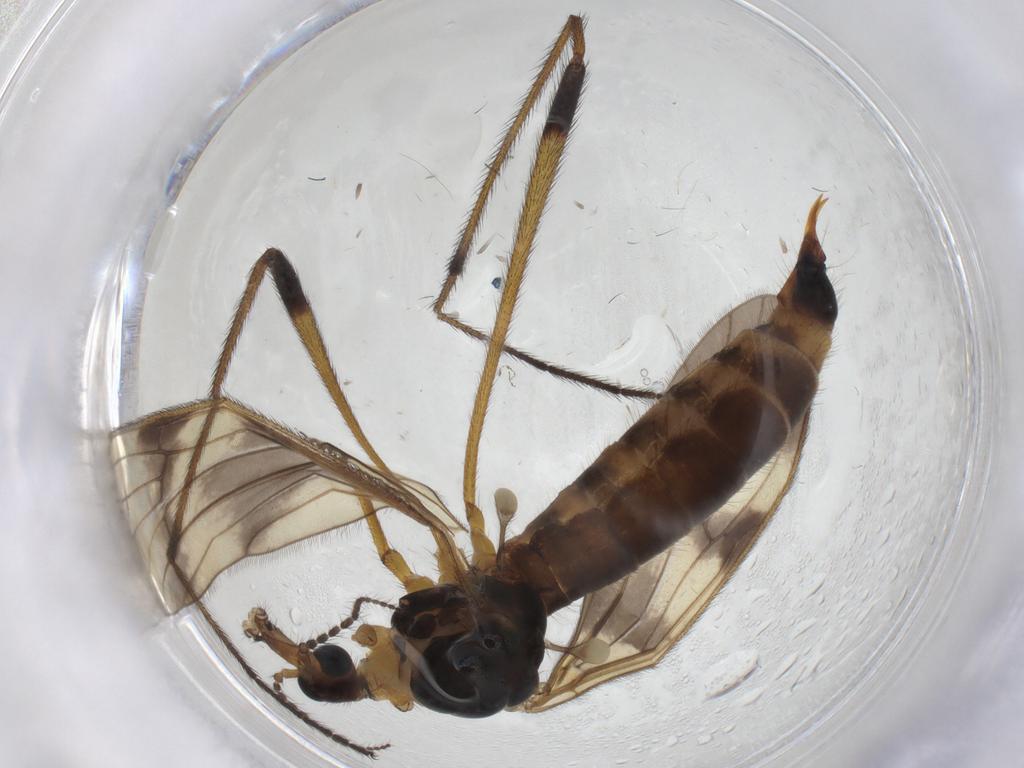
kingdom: Animalia
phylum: Arthropoda
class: Insecta
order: Diptera
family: Limoniidae
